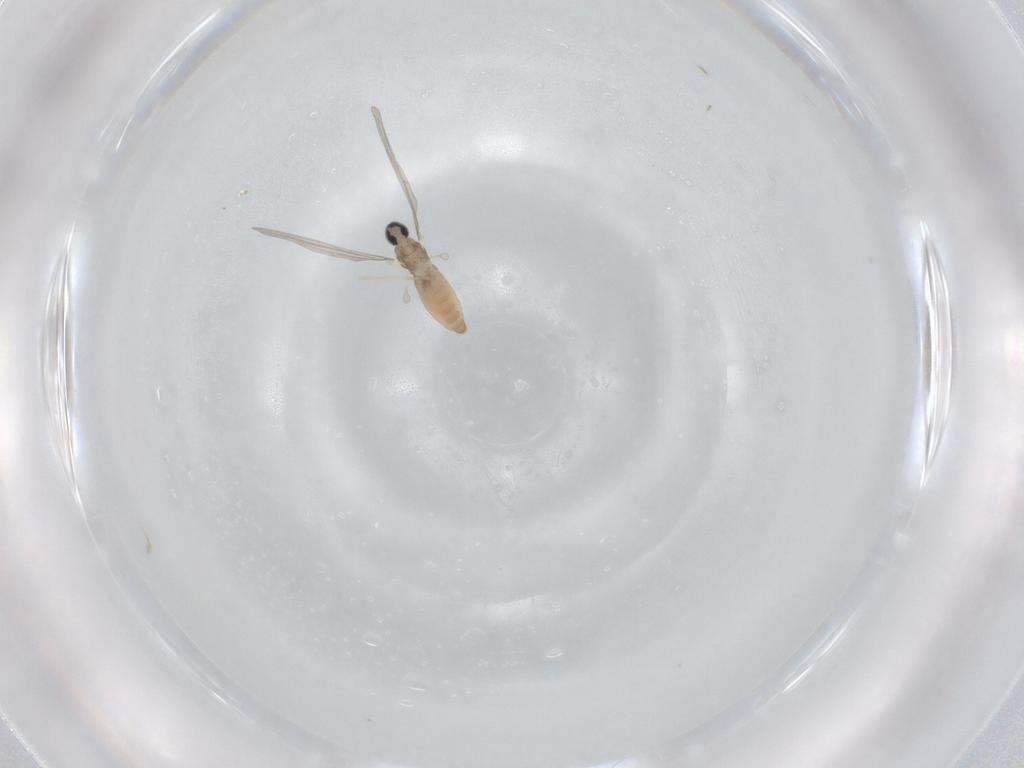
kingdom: Animalia
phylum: Arthropoda
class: Insecta
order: Diptera
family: Cecidomyiidae
